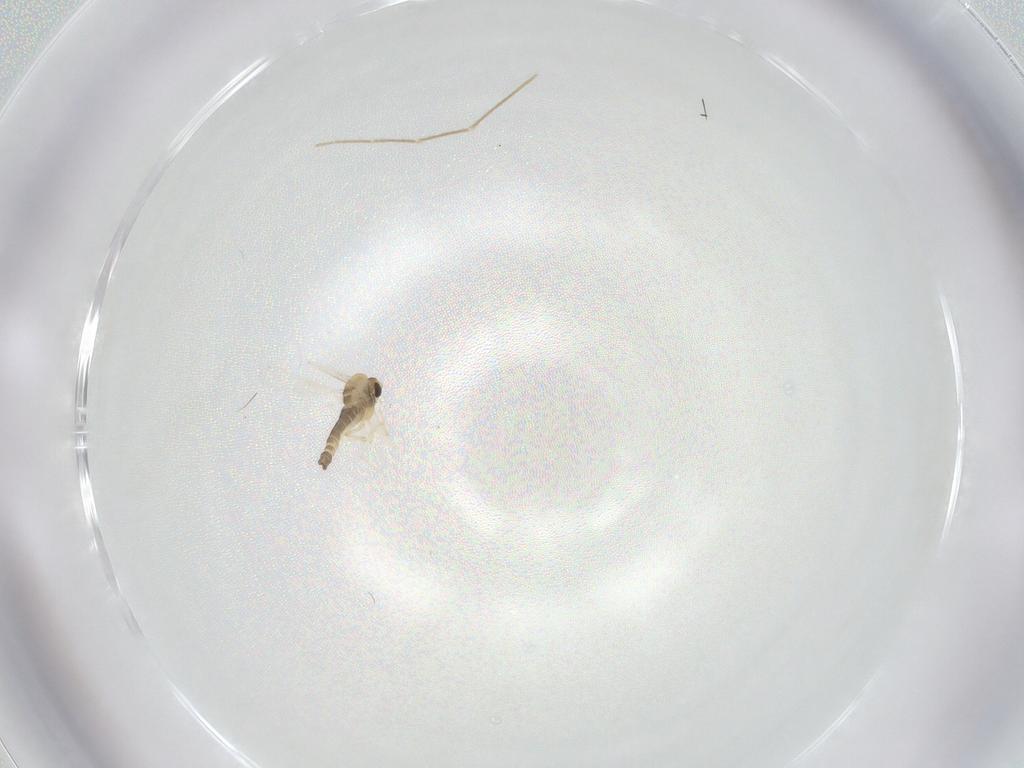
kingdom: Animalia
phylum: Arthropoda
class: Insecta
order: Diptera
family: Chironomidae
